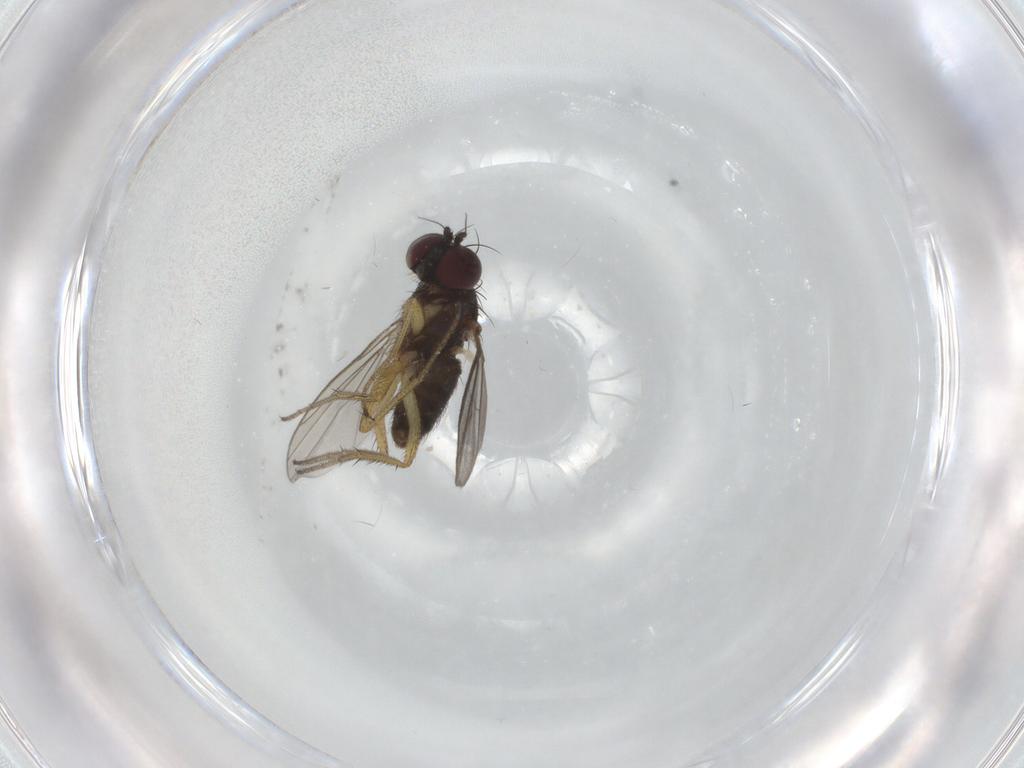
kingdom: Animalia
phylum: Arthropoda
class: Insecta
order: Diptera
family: Dolichopodidae
